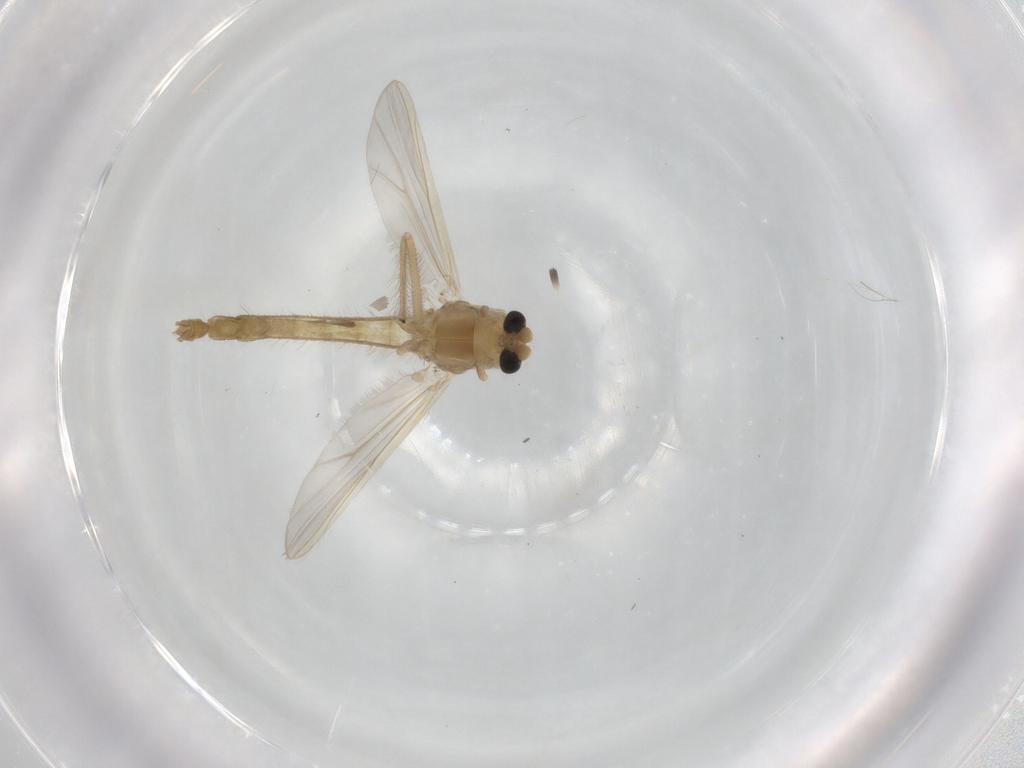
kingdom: Animalia
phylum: Arthropoda
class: Insecta
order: Diptera
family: Chironomidae
